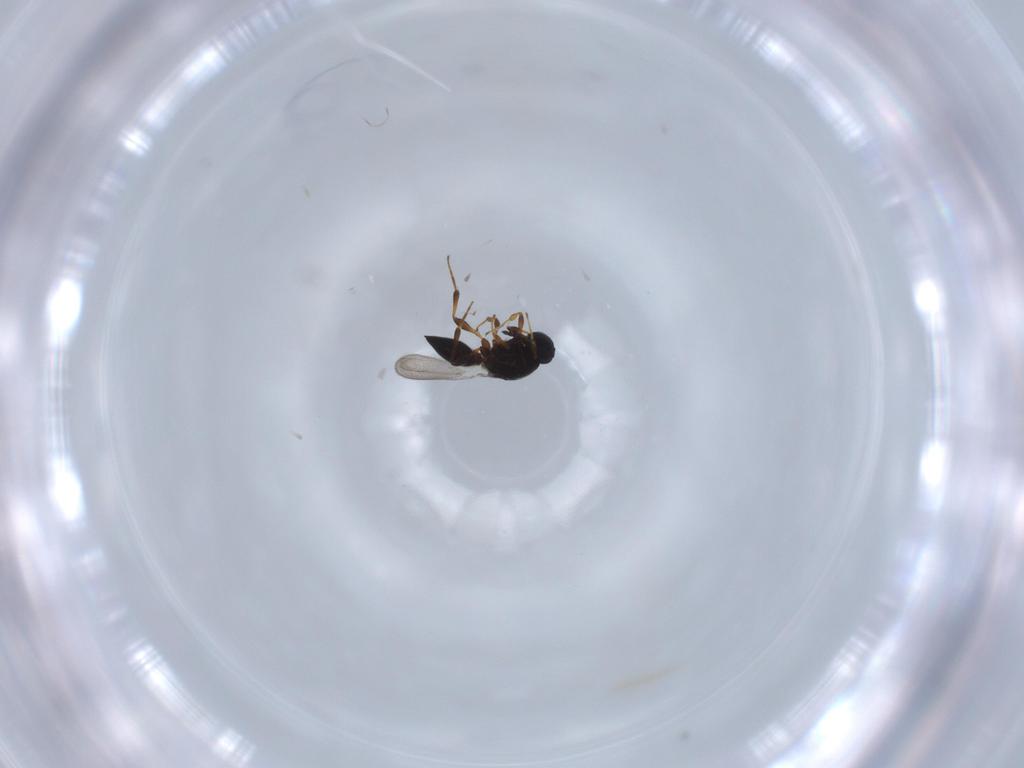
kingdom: Animalia
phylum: Arthropoda
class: Insecta
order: Hymenoptera
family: Platygastridae
